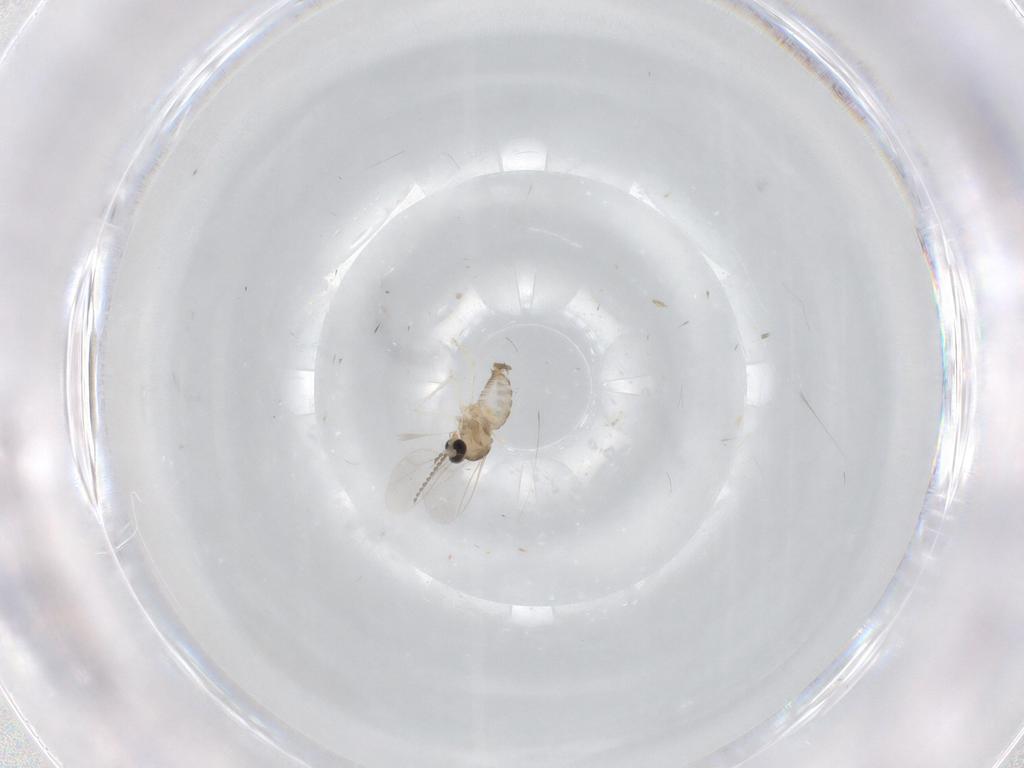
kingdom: Animalia
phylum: Arthropoda
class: Insecta
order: Diptera
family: Cecidomyiidae
